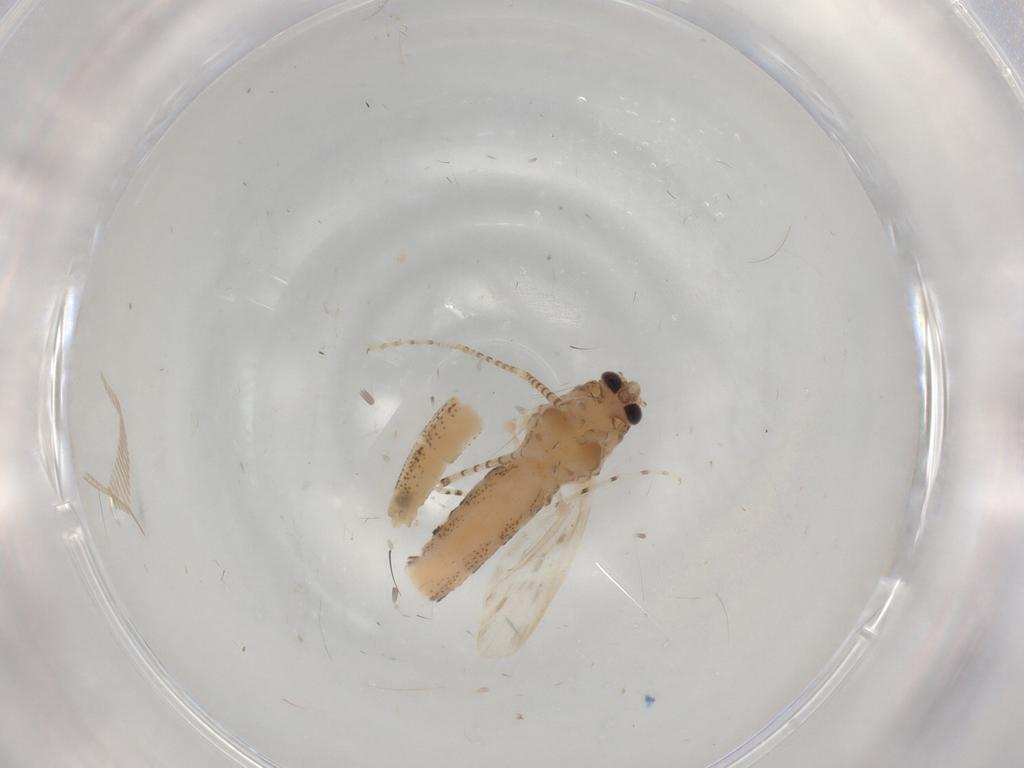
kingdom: Animalia
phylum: Arthropoda
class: Insecta
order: Diptera
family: Chaoboridae
